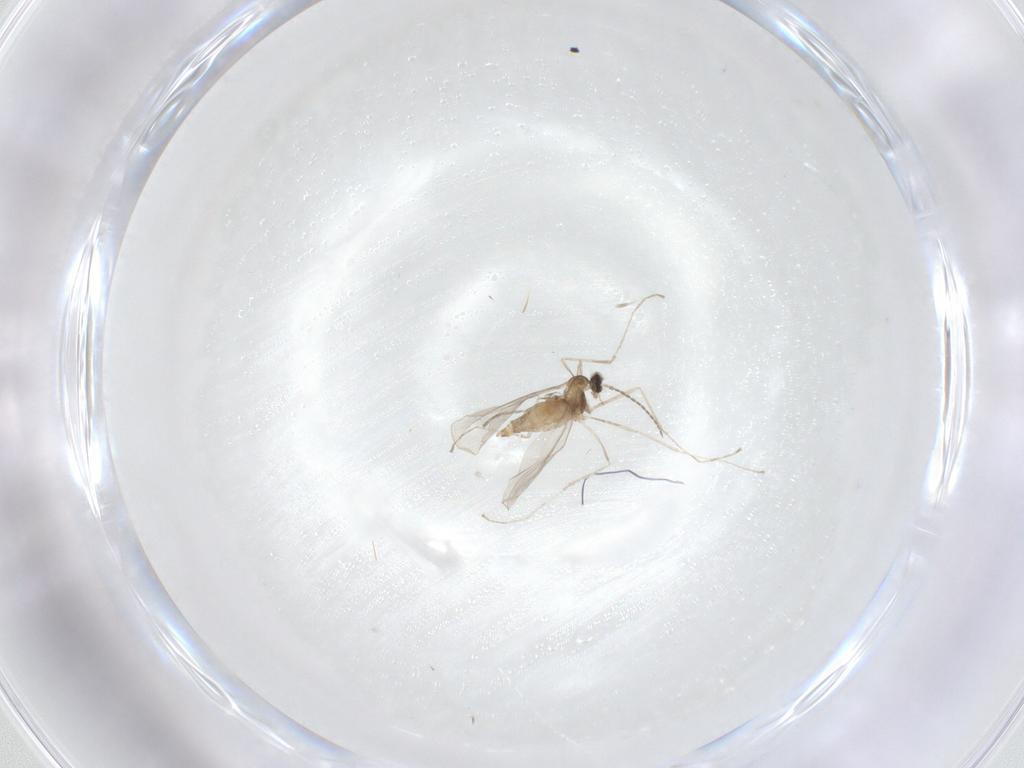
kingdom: Animalia
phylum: Arthropoda
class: Insecta
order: Diptera
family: Cecidomyiidae
